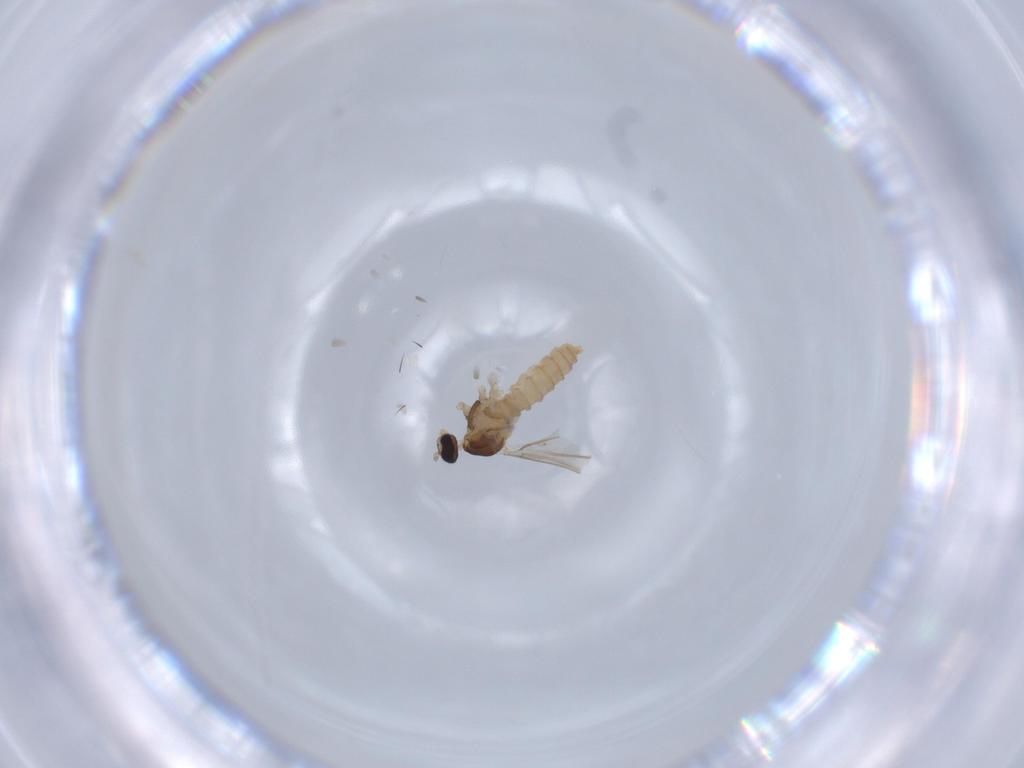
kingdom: Animalia
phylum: Arthropoda
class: Insecta
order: Diptera
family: Cecidomyiidae
